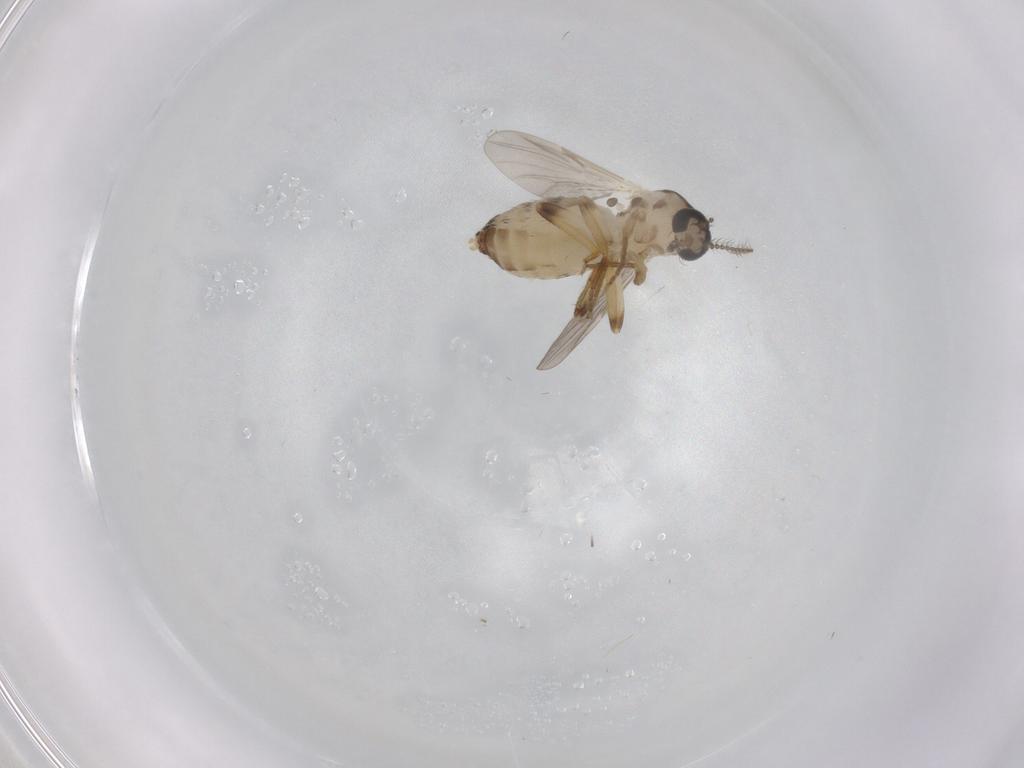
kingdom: Animalia
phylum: Arthropoda
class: Insecta
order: Diptera
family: Ceratopogonidae
